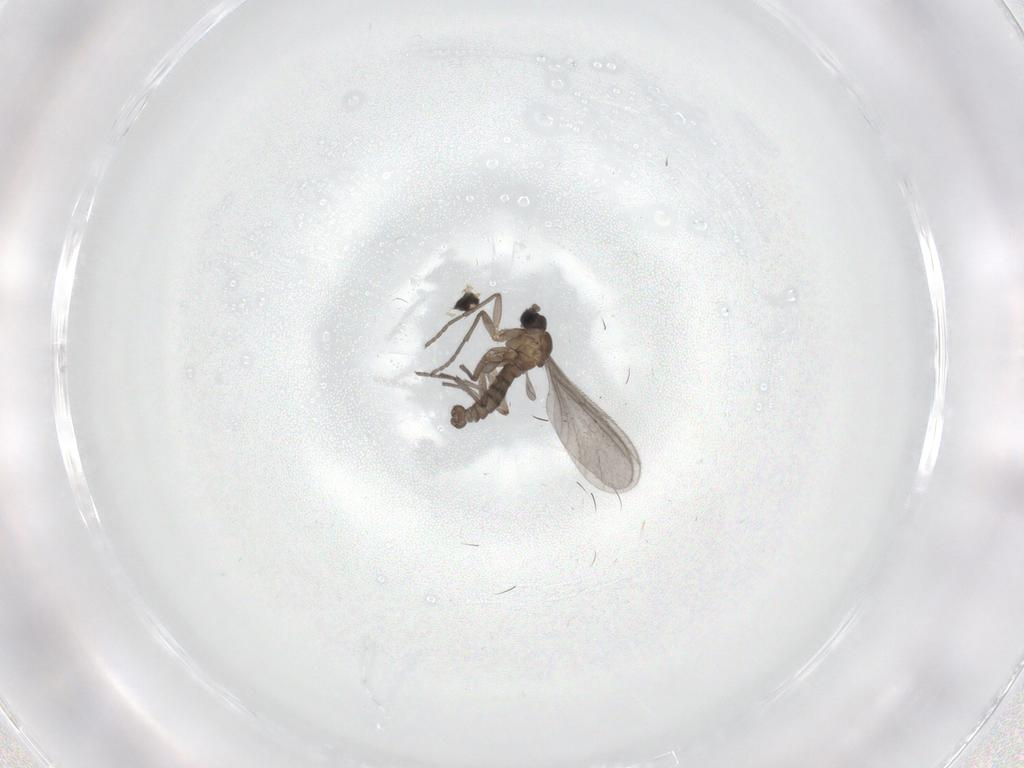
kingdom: Animalia
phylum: Arthropoda
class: Insecta
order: Diptera
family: Sciaridae
